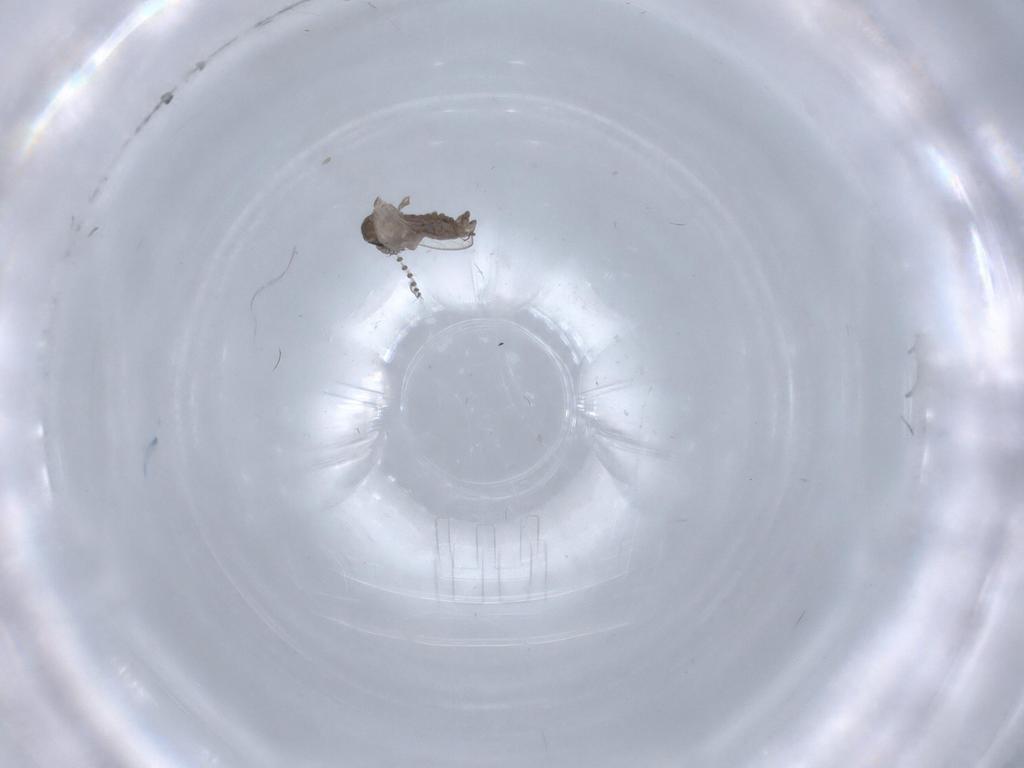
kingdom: Animalia
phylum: Arthropoda
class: Insecta
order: Diptera
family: Psychodidae
